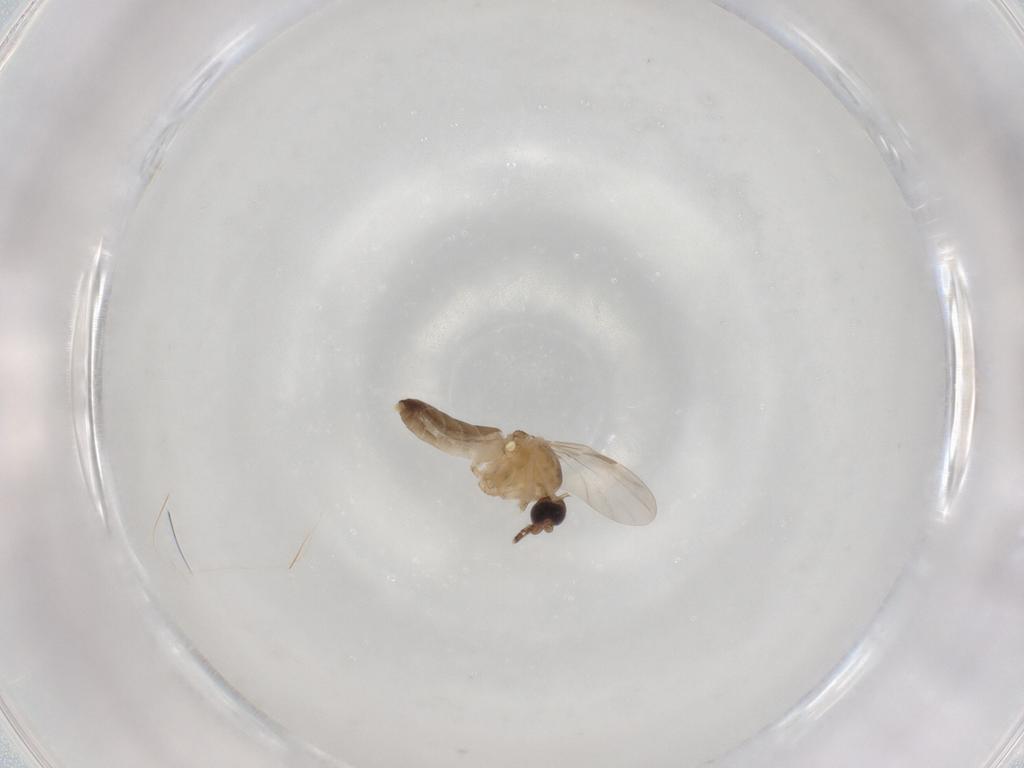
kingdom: Animalia
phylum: Arthropoda
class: Insecta
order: Diptera
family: Ceratopogonidae
